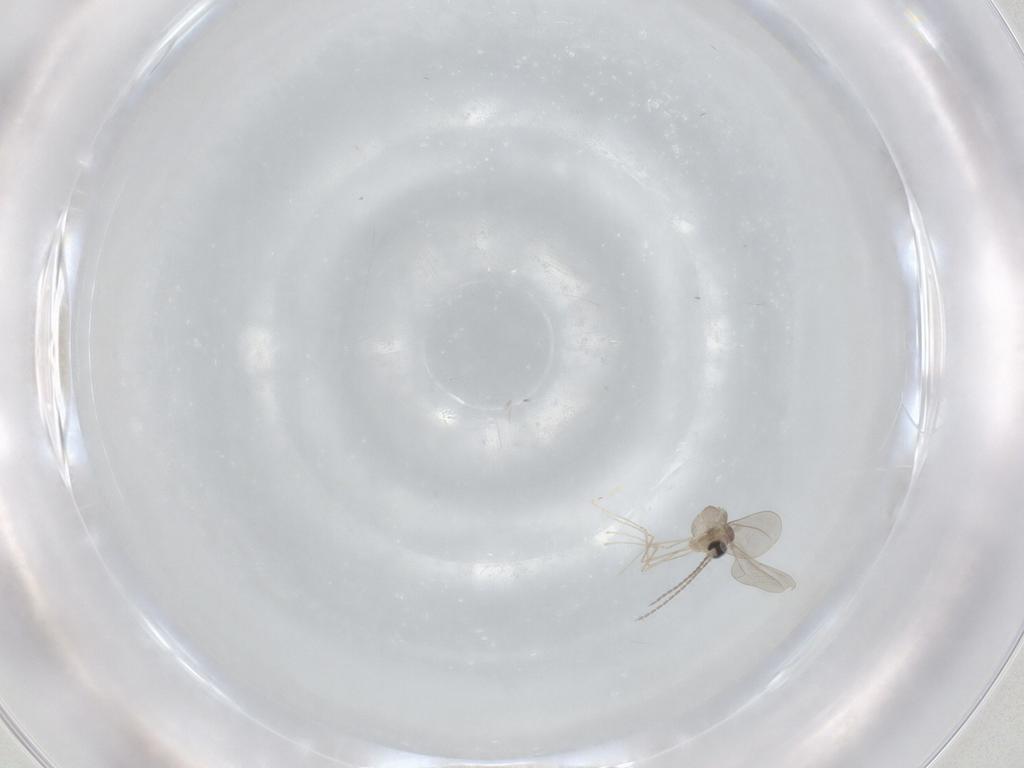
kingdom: Animalia
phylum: Arthropoda
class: Insecta
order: Diptera
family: Cecidomyiidae
